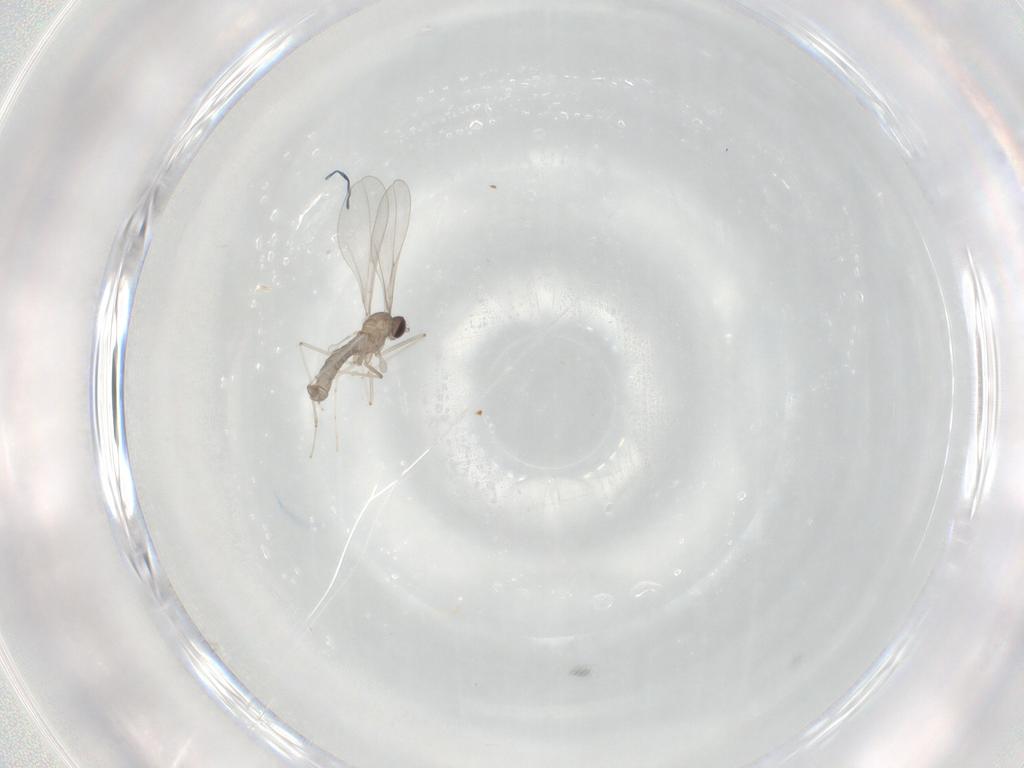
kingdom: Animalia
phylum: Arthropoda
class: Insecta
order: Diptera
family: Cecidomyiidae
